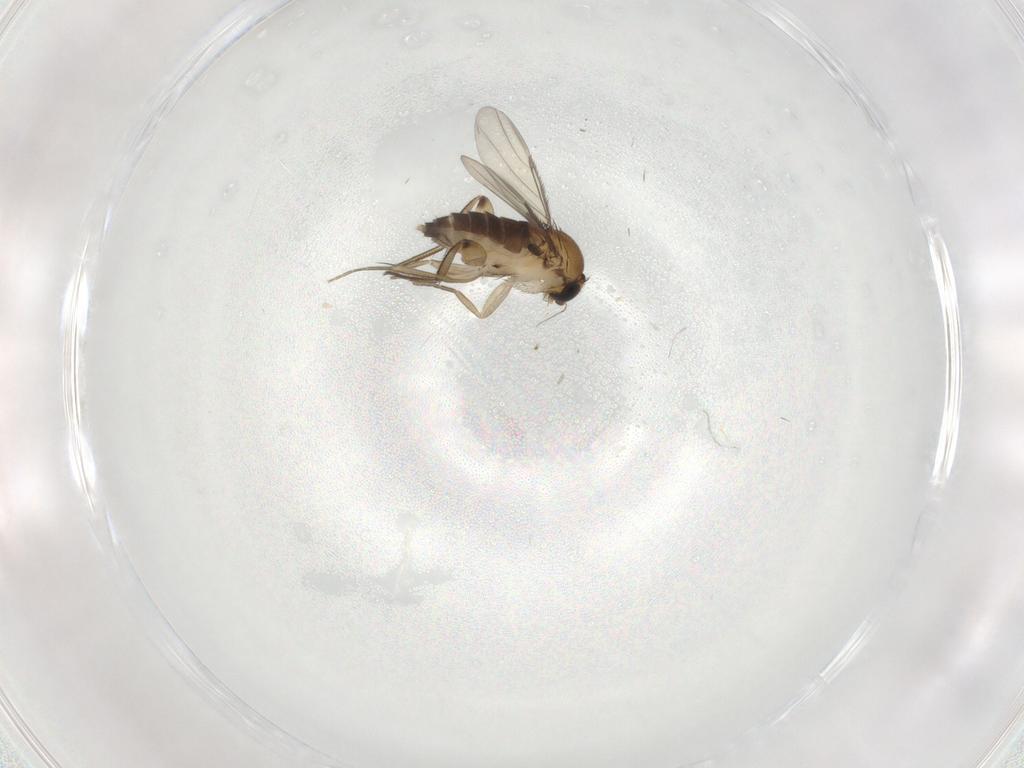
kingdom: Animalia
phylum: Arthropoda
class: Insecta
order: Diptera
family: Phoridae
